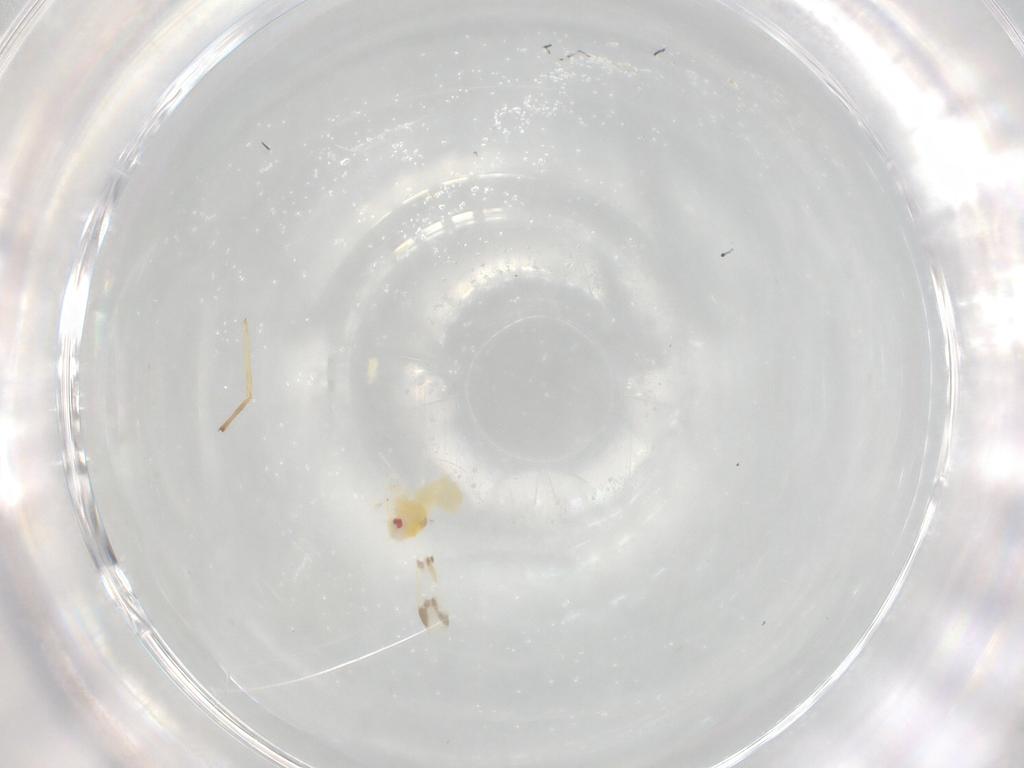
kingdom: Animalia
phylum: Arthropoda
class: Insecta
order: Hemiptera
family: Aleyrodidae
